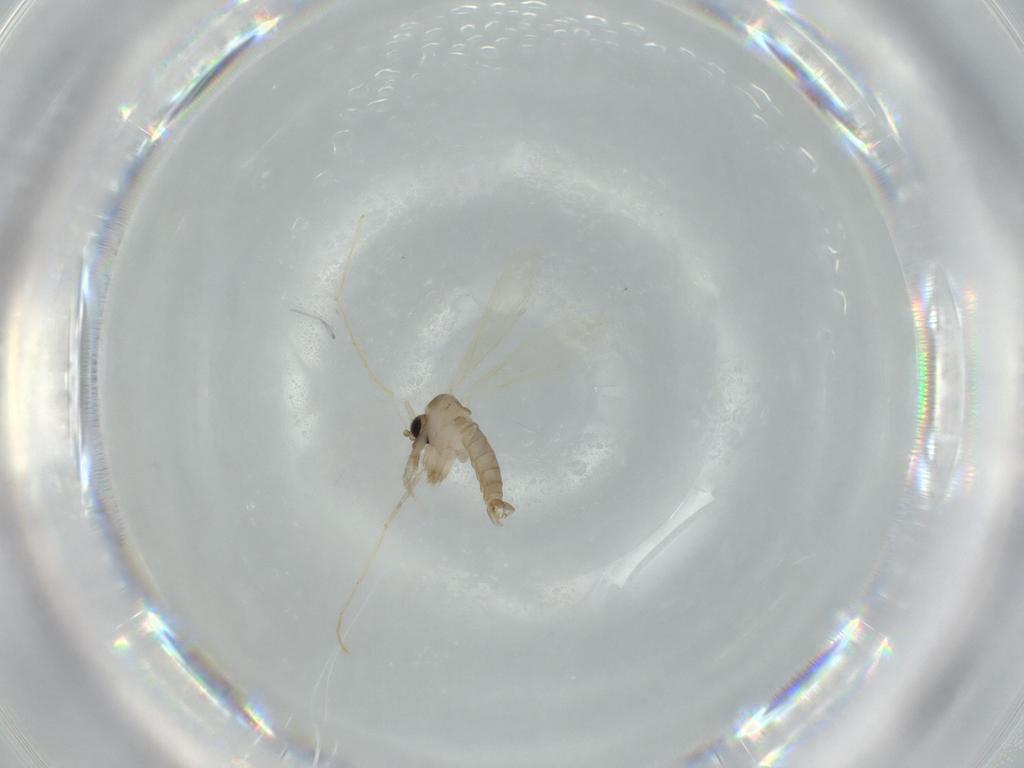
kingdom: Animalia
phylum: Arthropoda
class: Insecta
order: Diptera
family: Psychodidae
